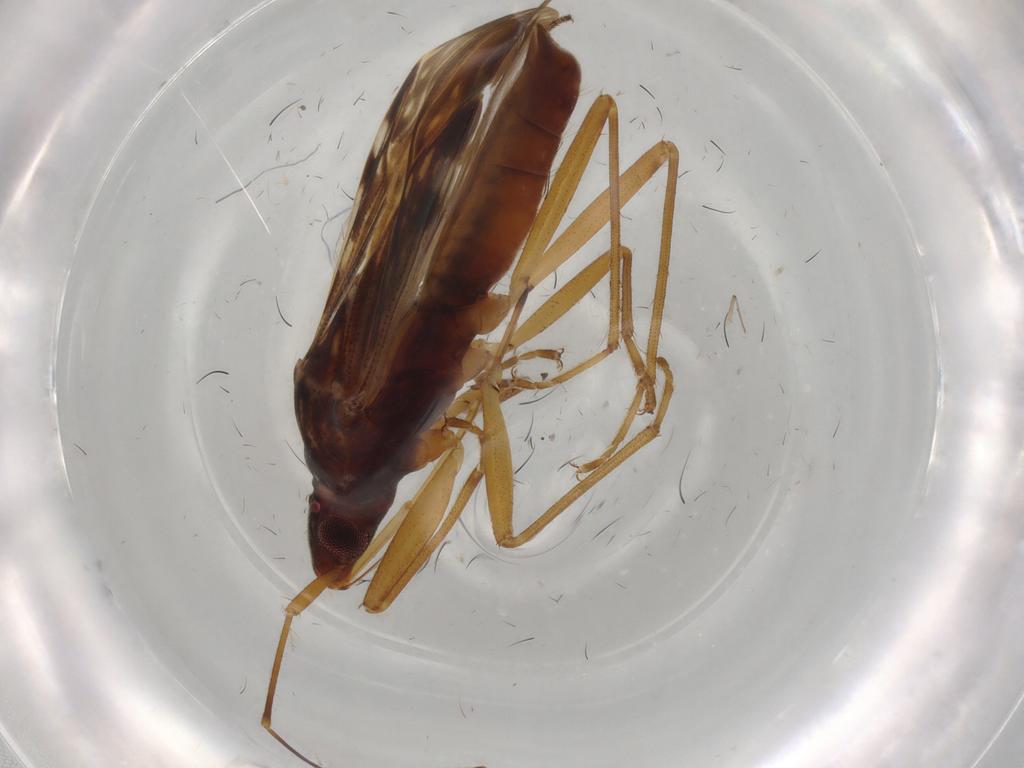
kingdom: Animalia
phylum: Arthropoda
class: Insecta
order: Hemiptera
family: Rhyparochromidae
